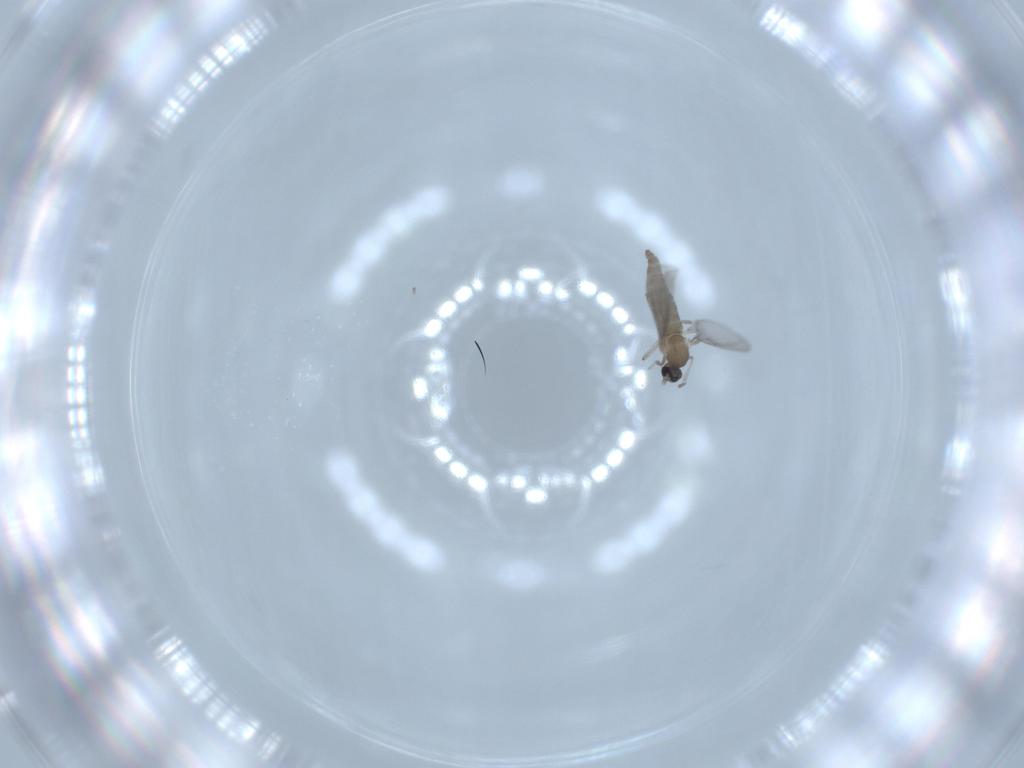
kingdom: Animalia
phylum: Arthropoda
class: Insecta
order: Diptera
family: Cecidomyiidae
